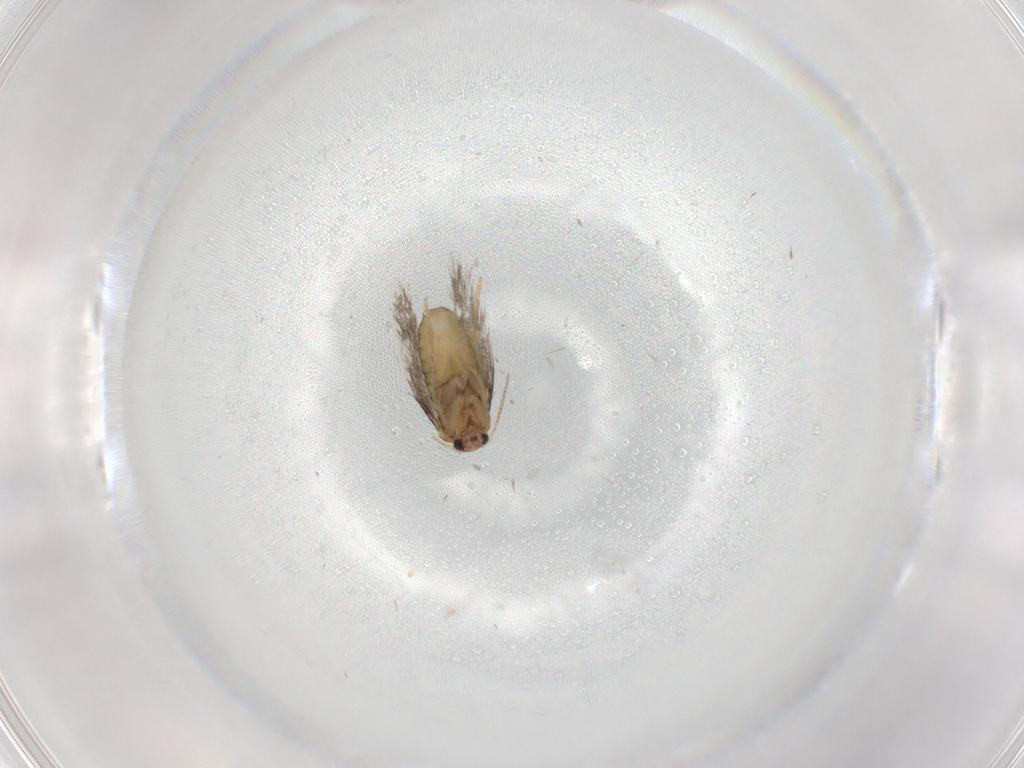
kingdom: Animalia
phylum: Arthropoda
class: Insecta
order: Lepidoptera
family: Nepticulidae
